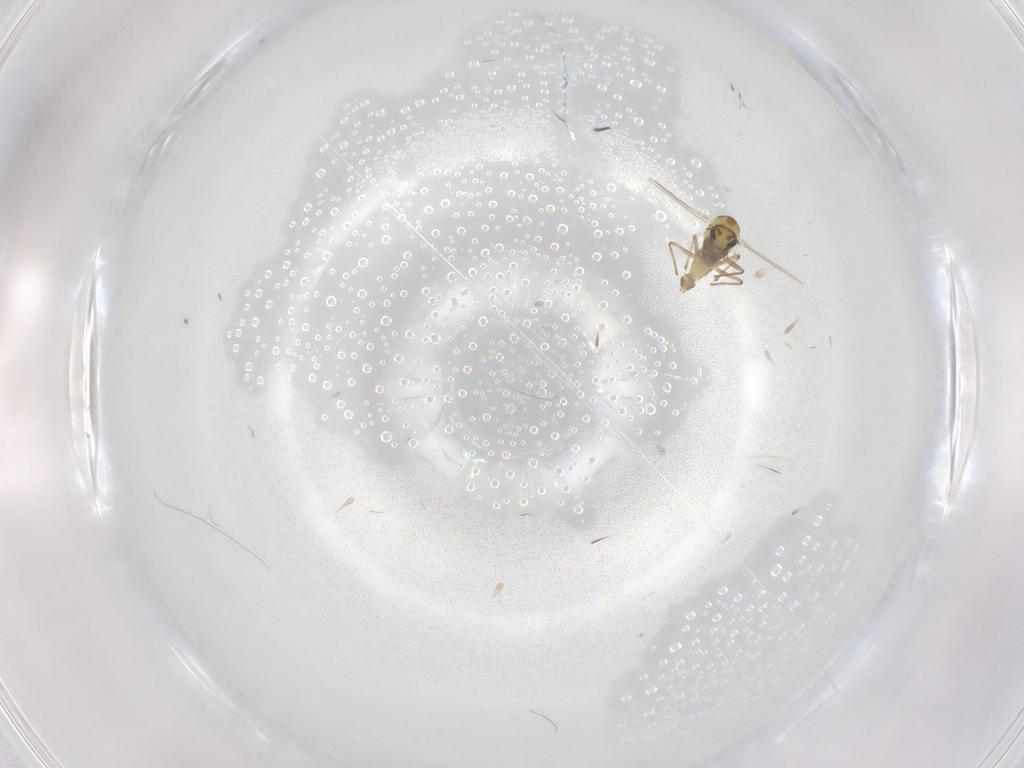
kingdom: Animalia
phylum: Arthropoda
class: Insecta
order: Diptera
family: Chironomidae
